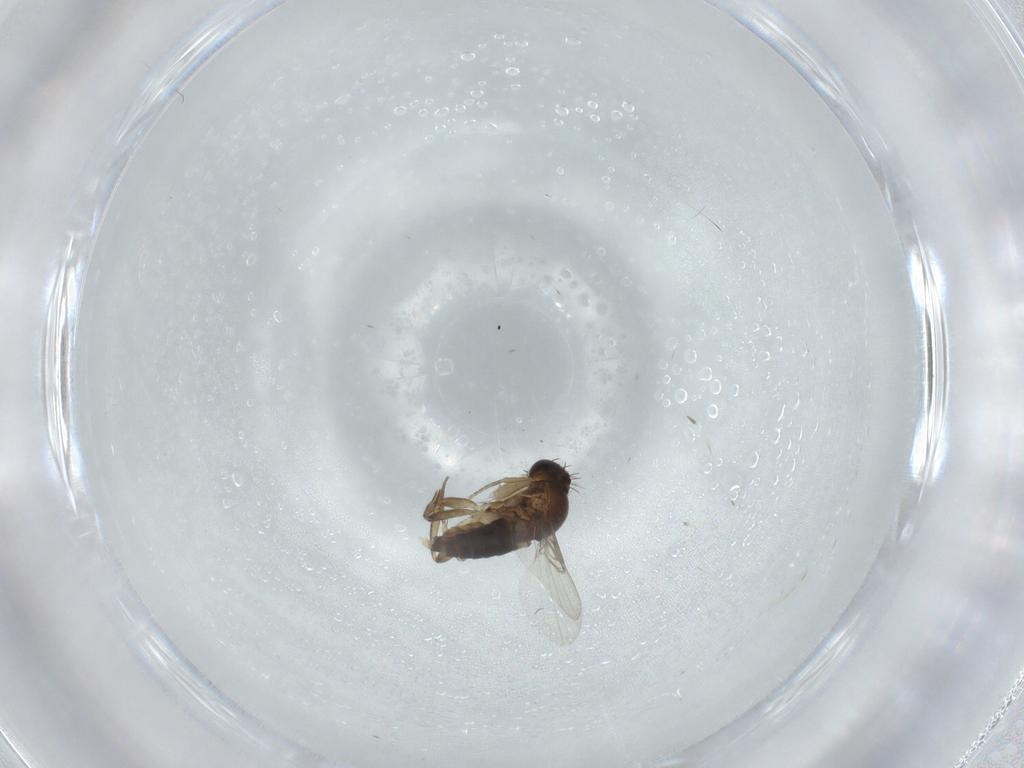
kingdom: Animalia
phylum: Arthropoda
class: Insecta
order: Diptera
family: Phoridae
